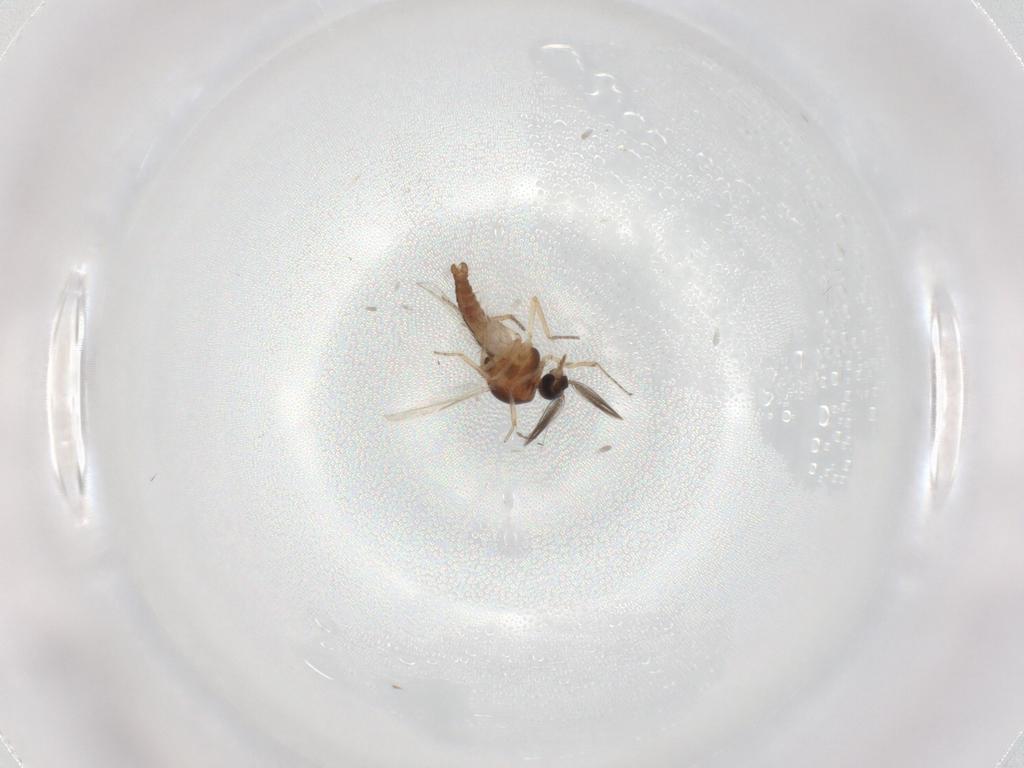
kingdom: Animalia
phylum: Arthropoda
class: Insecta
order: Diptera
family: Ceratopogonidae
